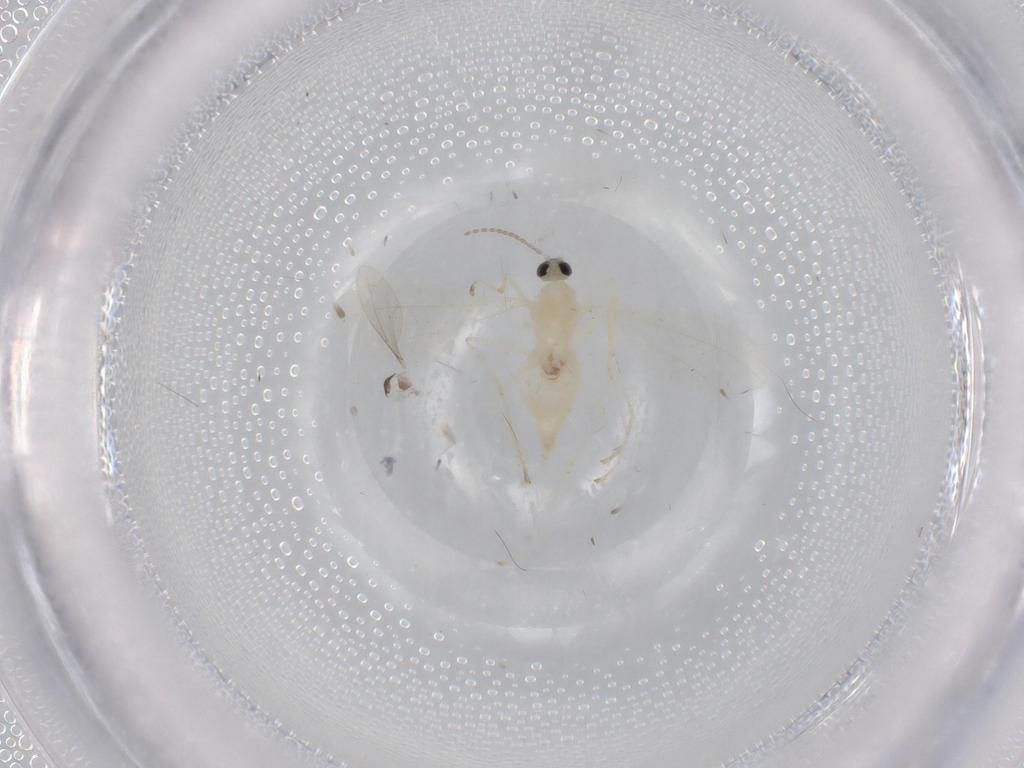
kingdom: Animalia
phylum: Arthropoda
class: Insecta
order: Diptera
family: Cecidomyiidae
